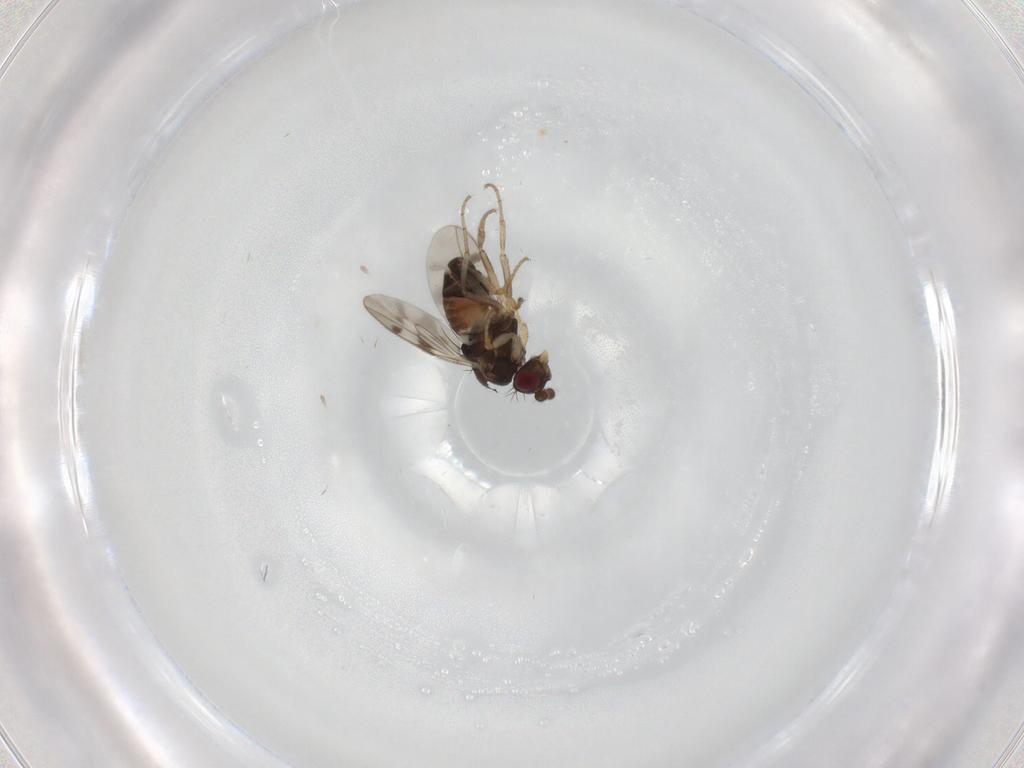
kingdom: Animalia
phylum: Arthropoda
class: Insecta
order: Diptera
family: Sphaeroceridae
